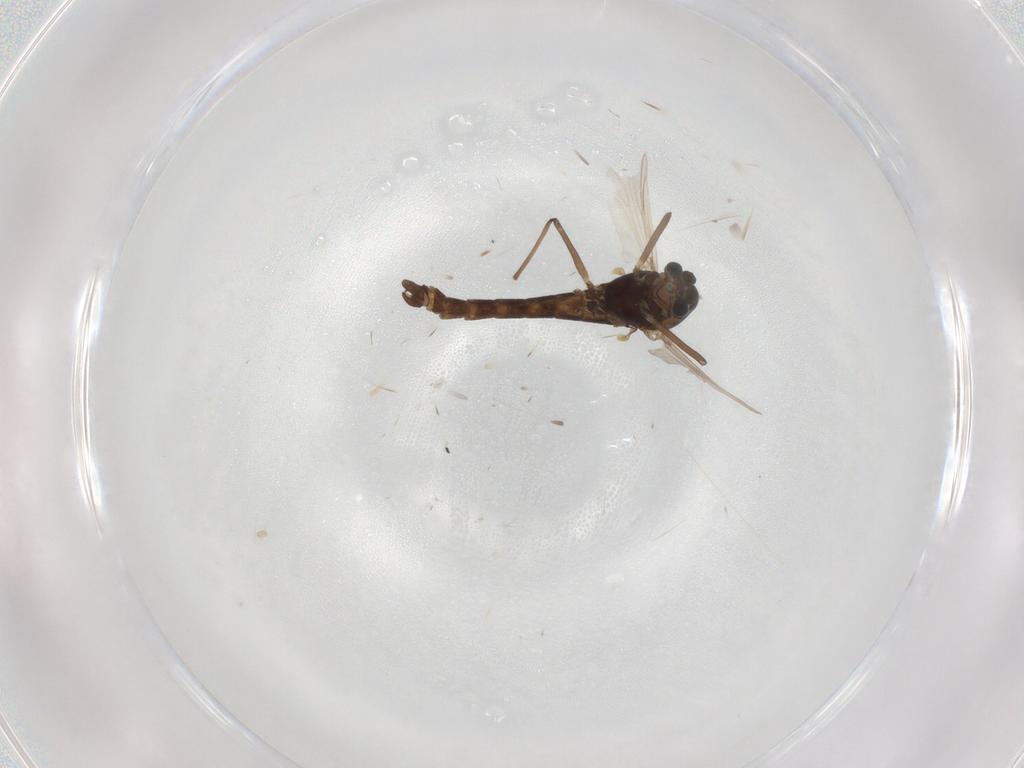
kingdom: Animalia
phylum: Arthropoda
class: Insecta
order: Diptera
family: Chironomidae
